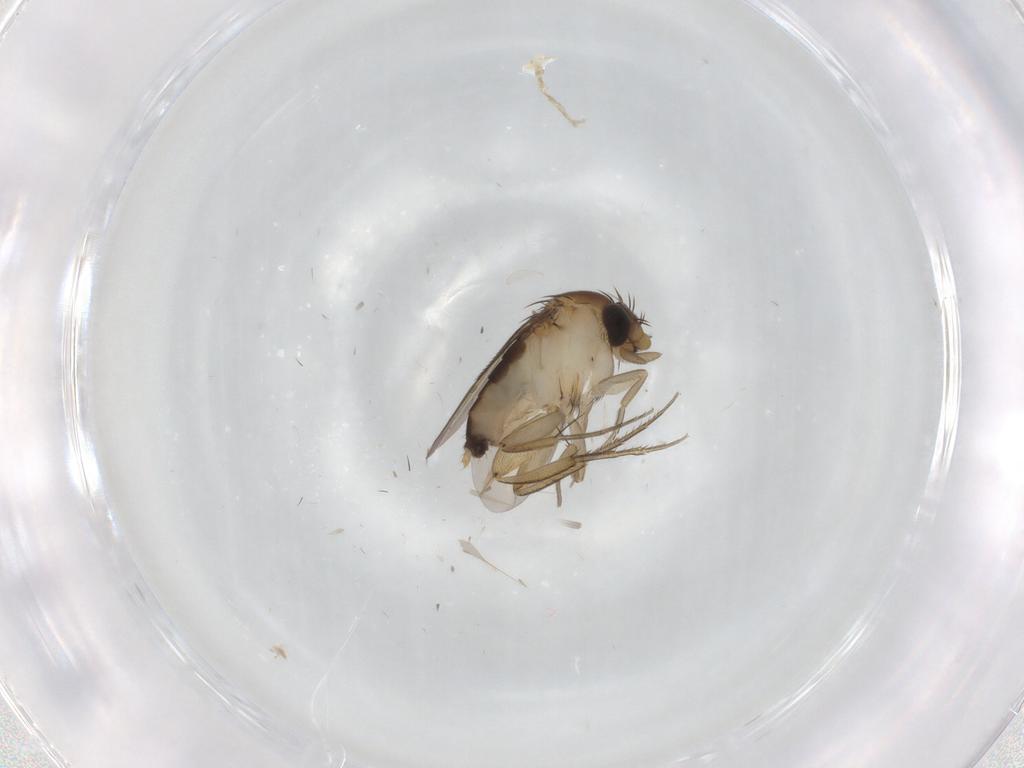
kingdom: Animalia
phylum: Arthropoda
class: Insecta
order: Diptera
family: Phoridae
